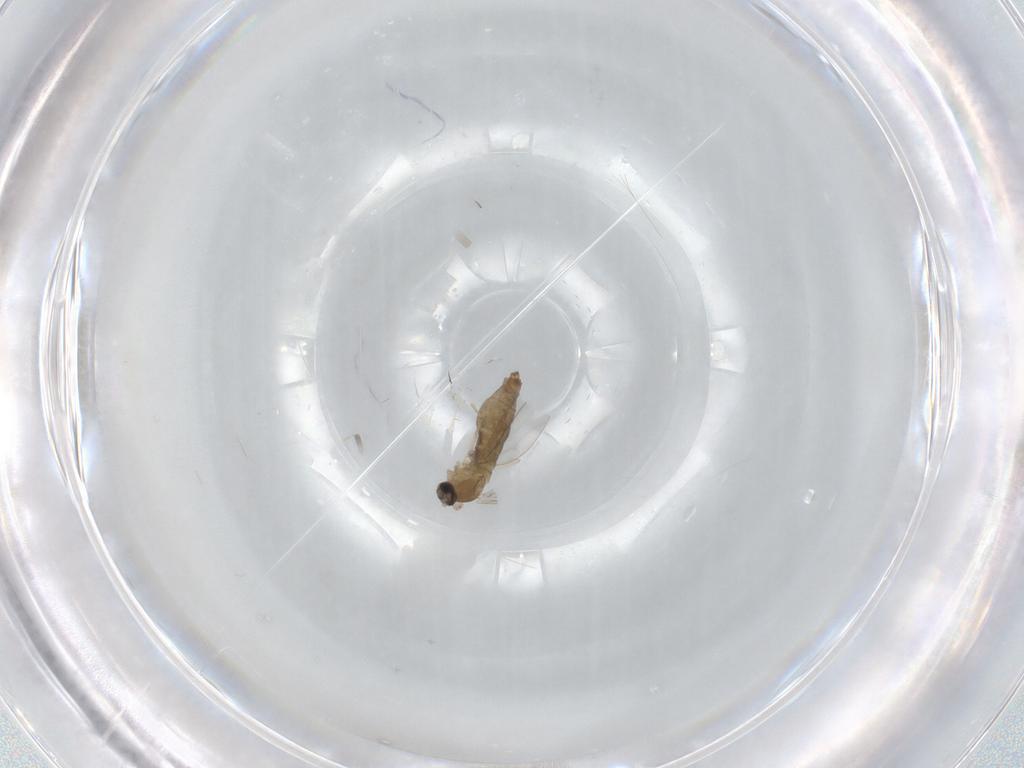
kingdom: Animalia
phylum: Arthropoda
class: Insecta
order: Diptera
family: Cecidomyiidae
